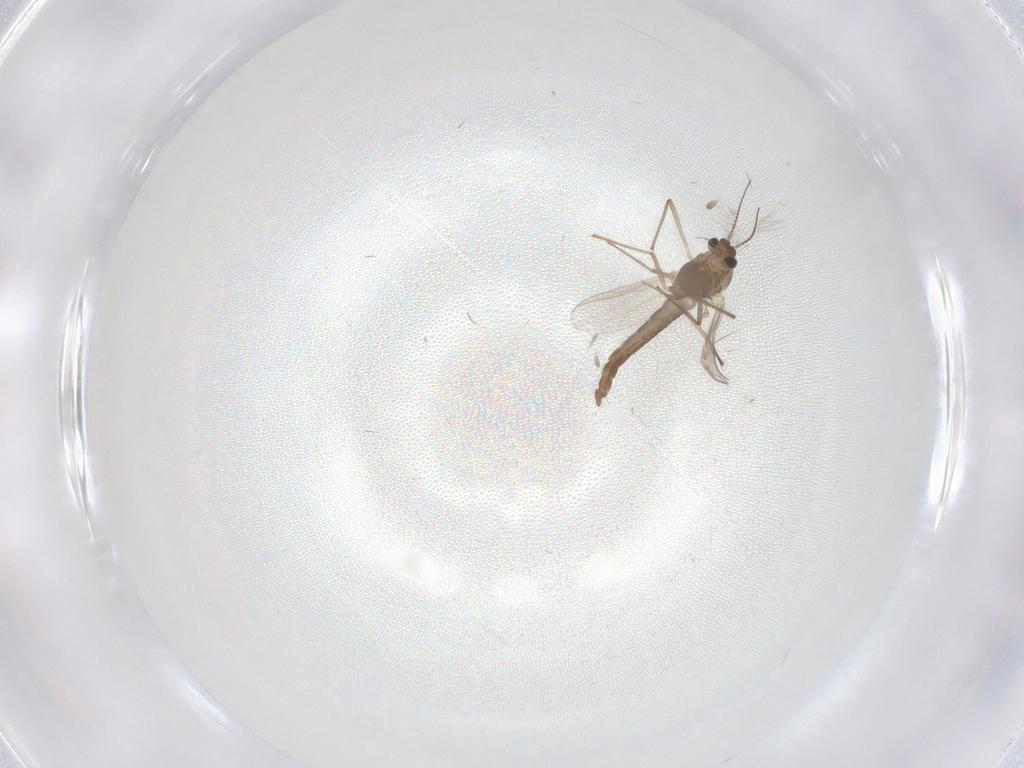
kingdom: Animalia
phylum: Arthropoda
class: Insecta
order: Diptera
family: Chironomidae
